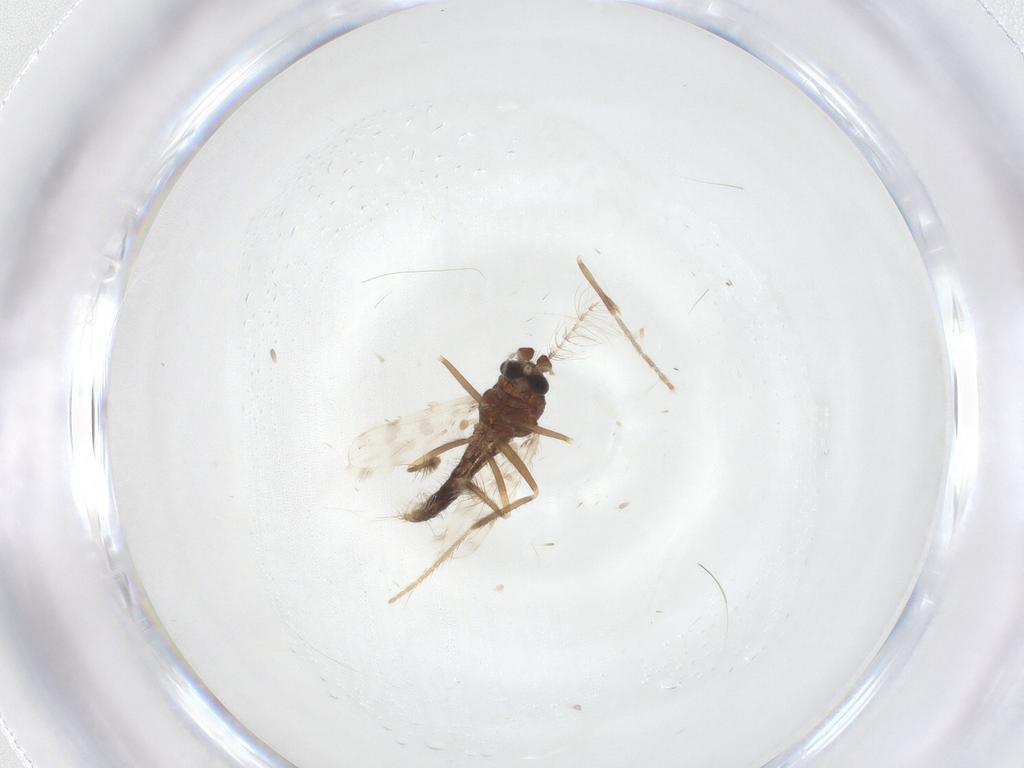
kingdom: Animalia
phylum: Arthropoda
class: Insecta
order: Diptera
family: Corethrellidae
